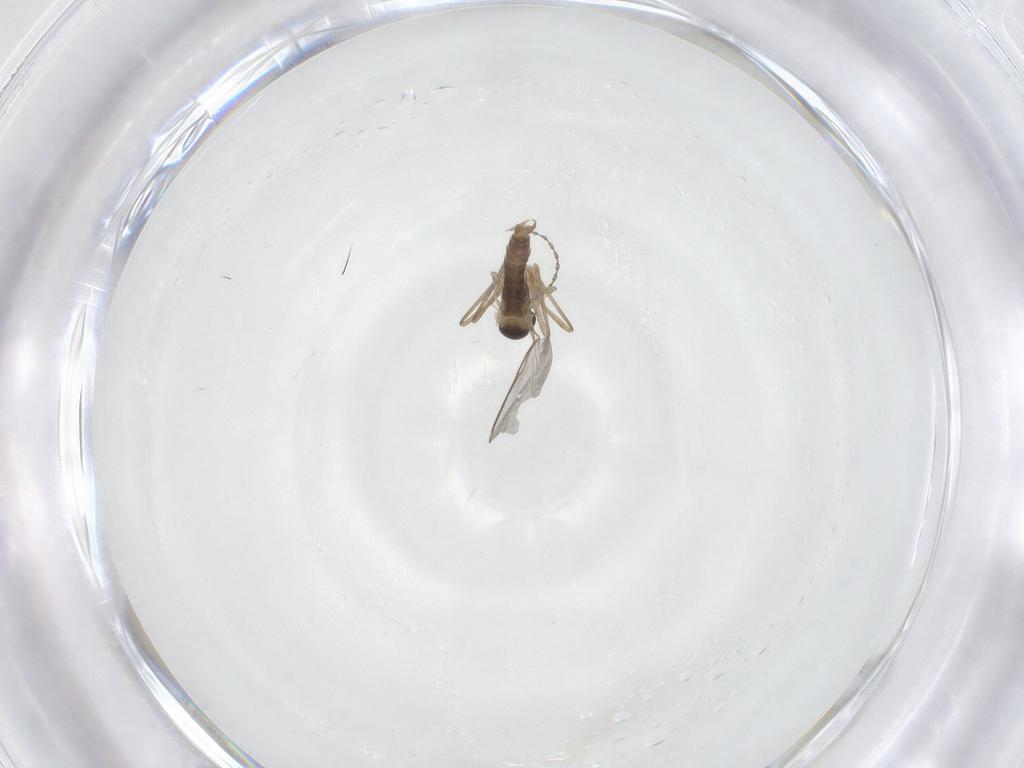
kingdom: Animalia
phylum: Arthropoda
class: Insecta
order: Diptera
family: Cecidomyiidae
